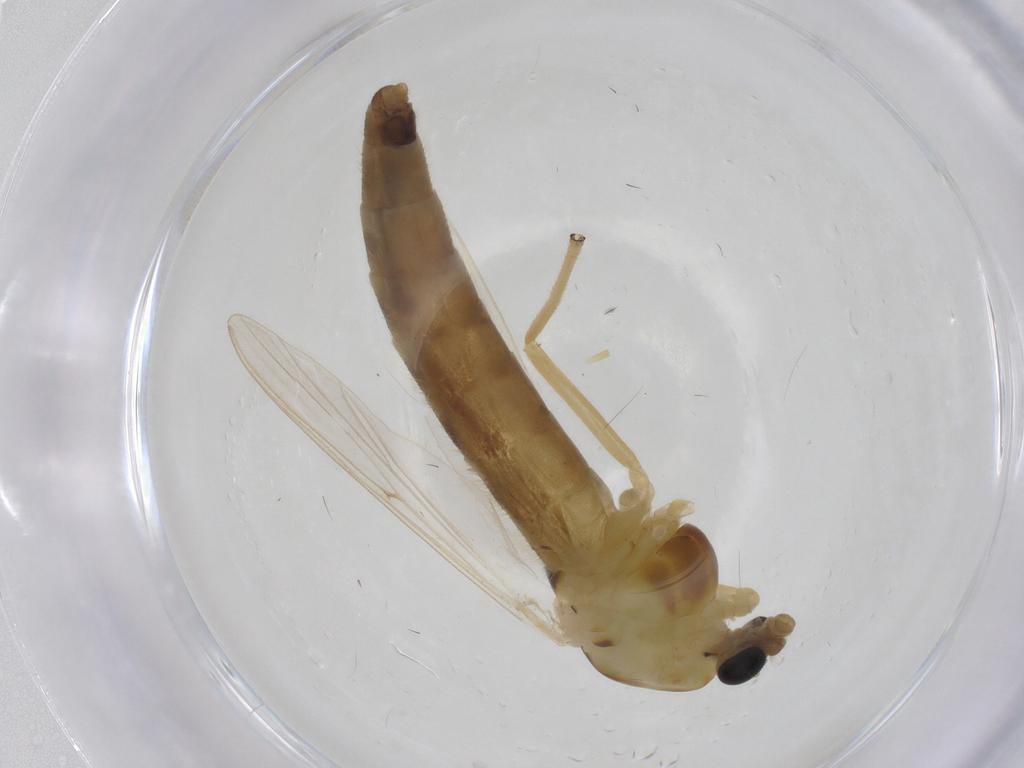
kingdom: Animalia
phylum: Arthropoda
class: Insecta
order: Diptera
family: Chironomidae
